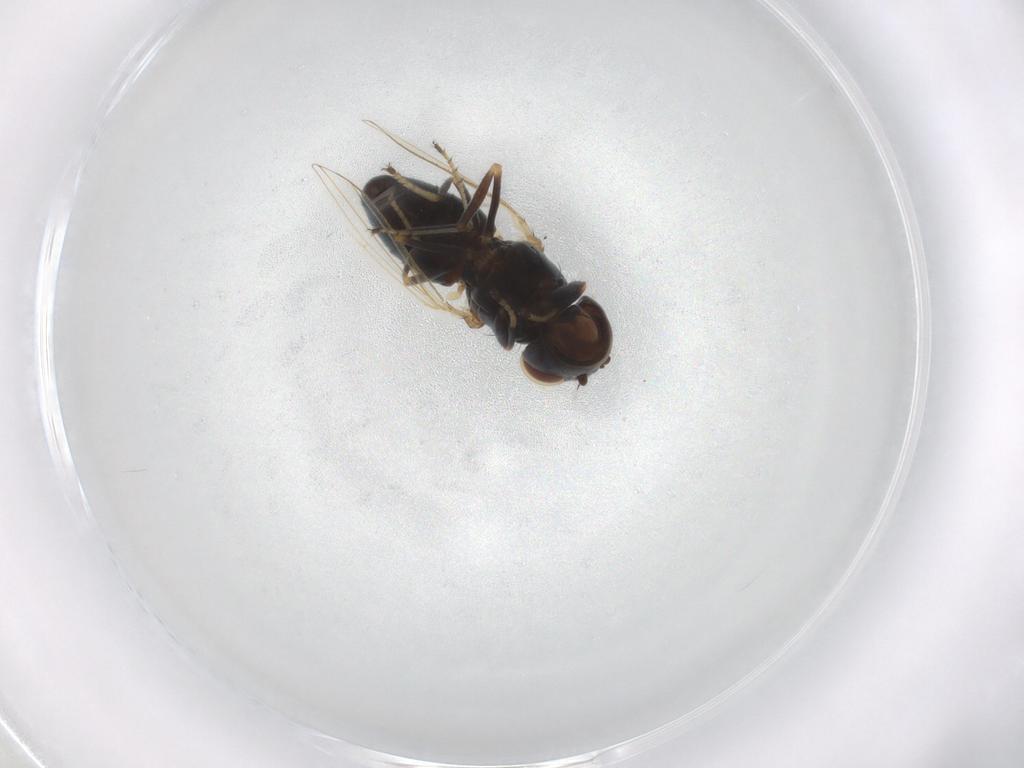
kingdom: Animalia
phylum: Arthropoda
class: Insecta
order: Diptera
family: Ephydridae
